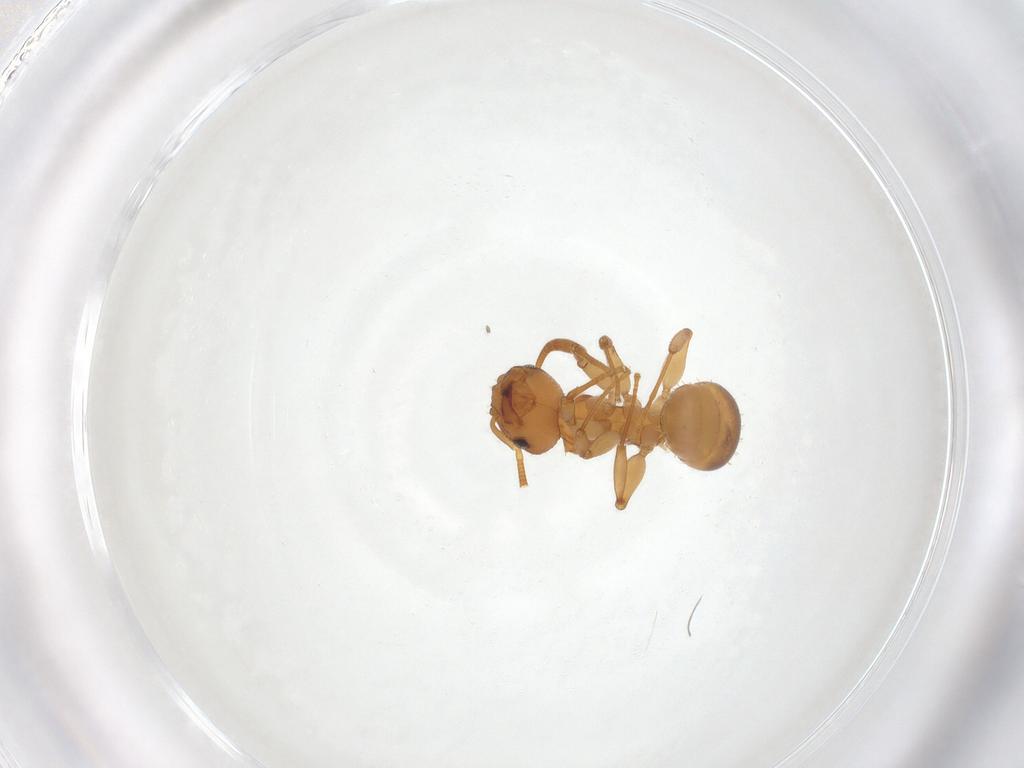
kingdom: Animalia
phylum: Arthropoda
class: Insecta
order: Hymenoptera
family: Formicidae
